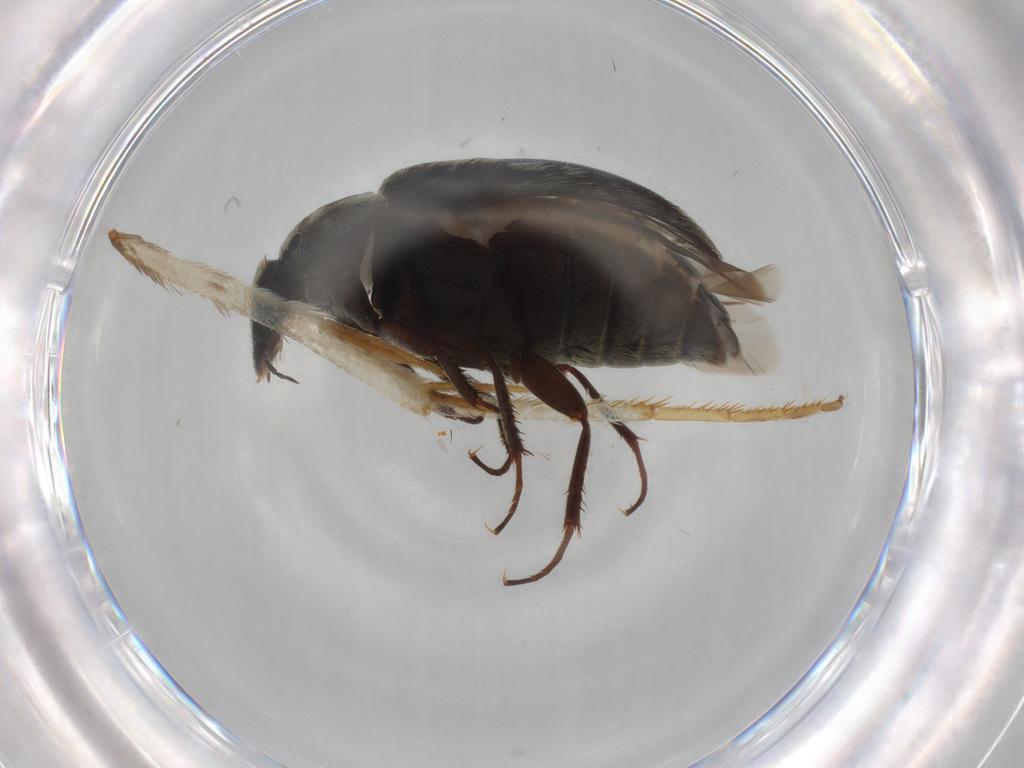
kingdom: Animalia
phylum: Arthropoda
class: Insecta
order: Coleoptera
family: Dermestidae
